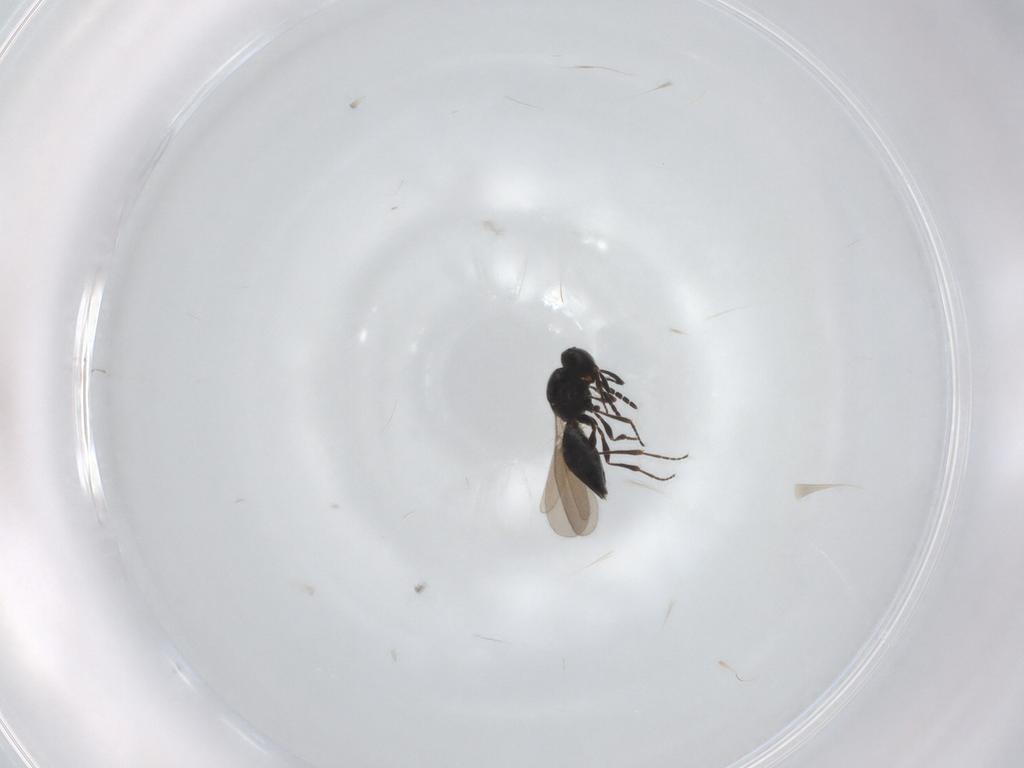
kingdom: Animalia
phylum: Arthropoda
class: Insecta
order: Hymenoptera
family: Platygastridae
